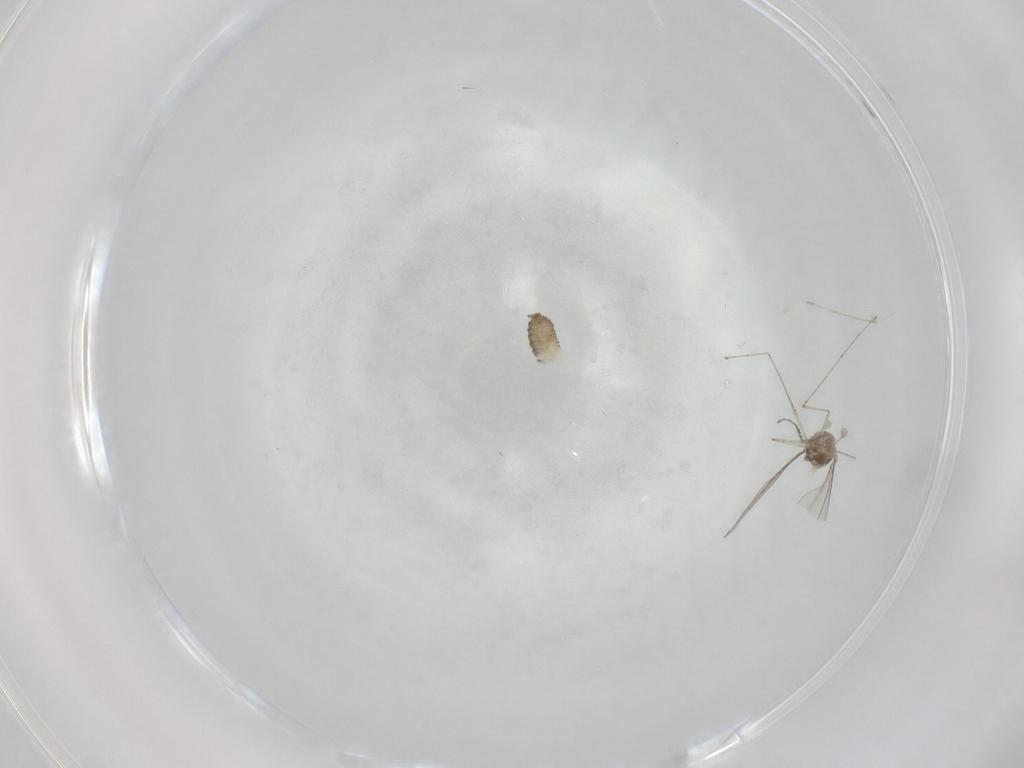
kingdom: Animalia
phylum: Arthropoda
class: Insecta
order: Diptera
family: Cecidomyiidae
